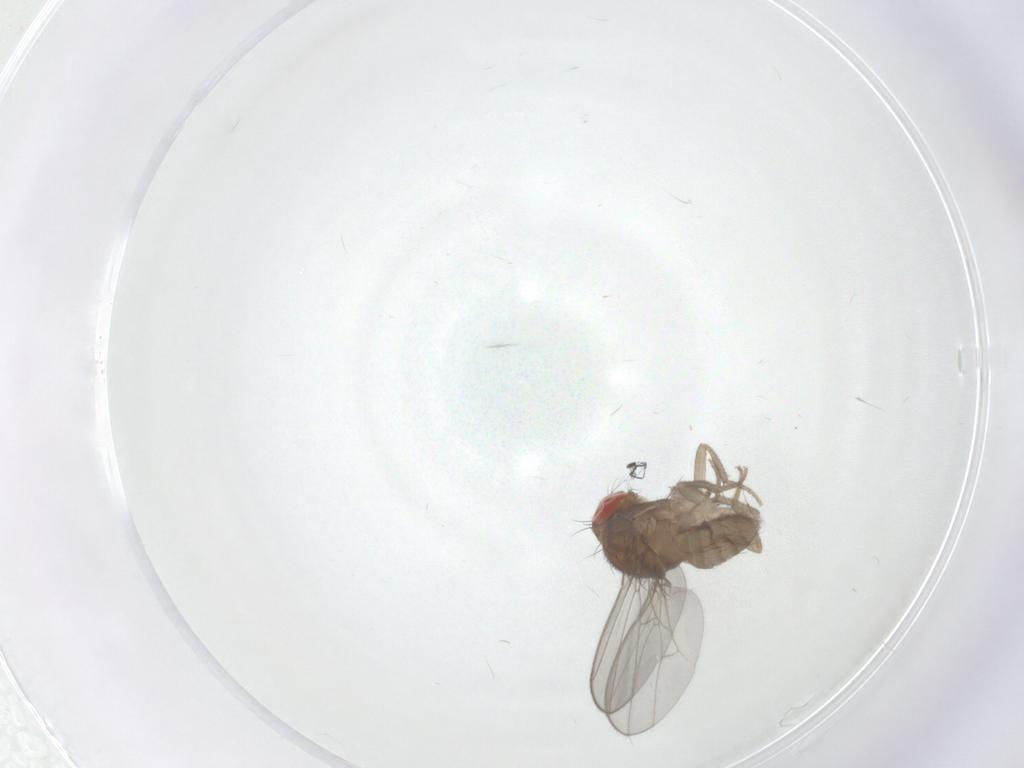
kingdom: Animalia
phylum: Arthropoda
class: Insecta
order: Diptera
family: Drosophilidae
